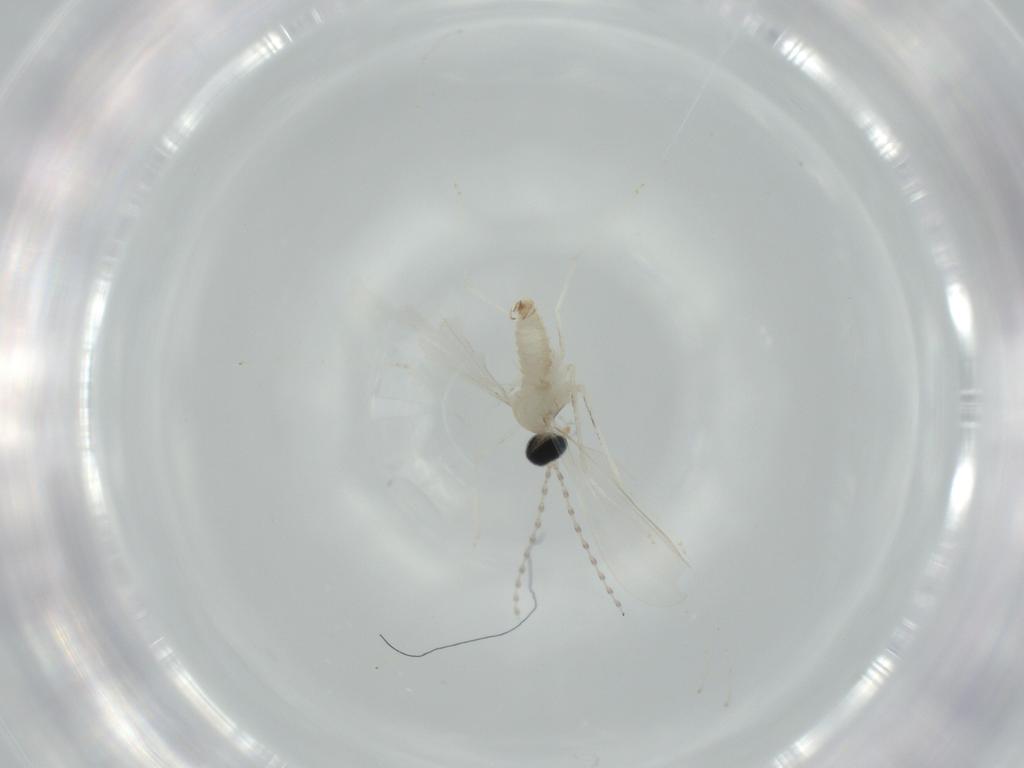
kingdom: Animalia
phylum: Arthropoda
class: Insecta
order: Diptera
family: Cecidomyiidae
